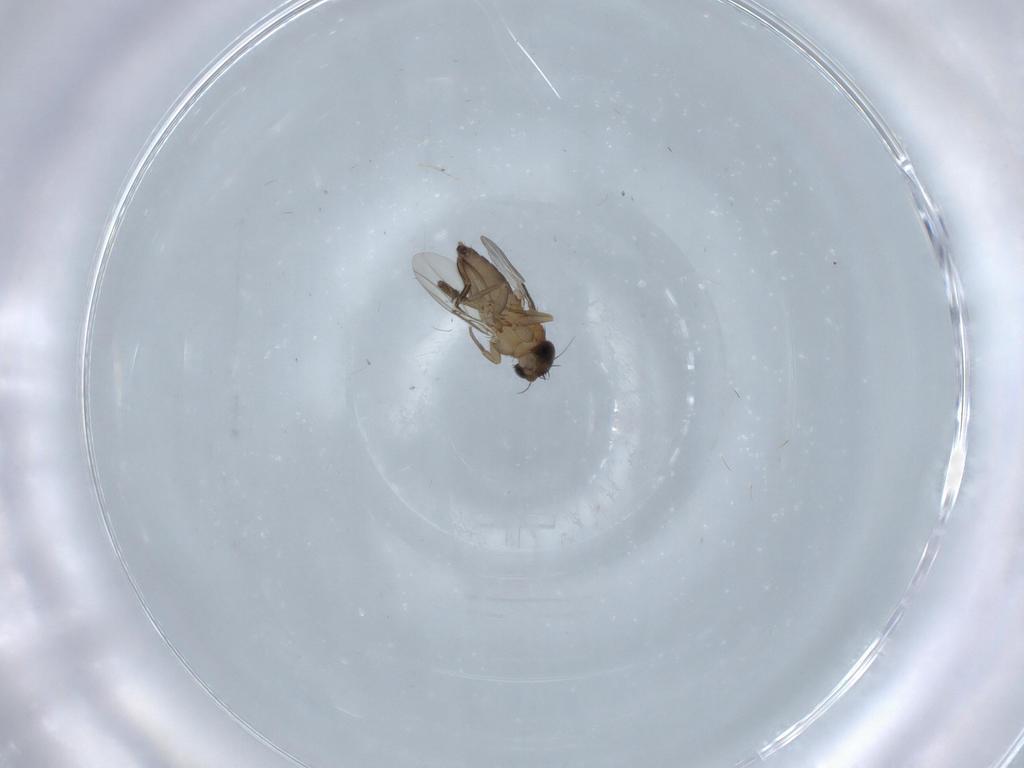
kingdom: Animalia
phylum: Arthropoda
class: Insecta
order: Diptera
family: Phoridae
